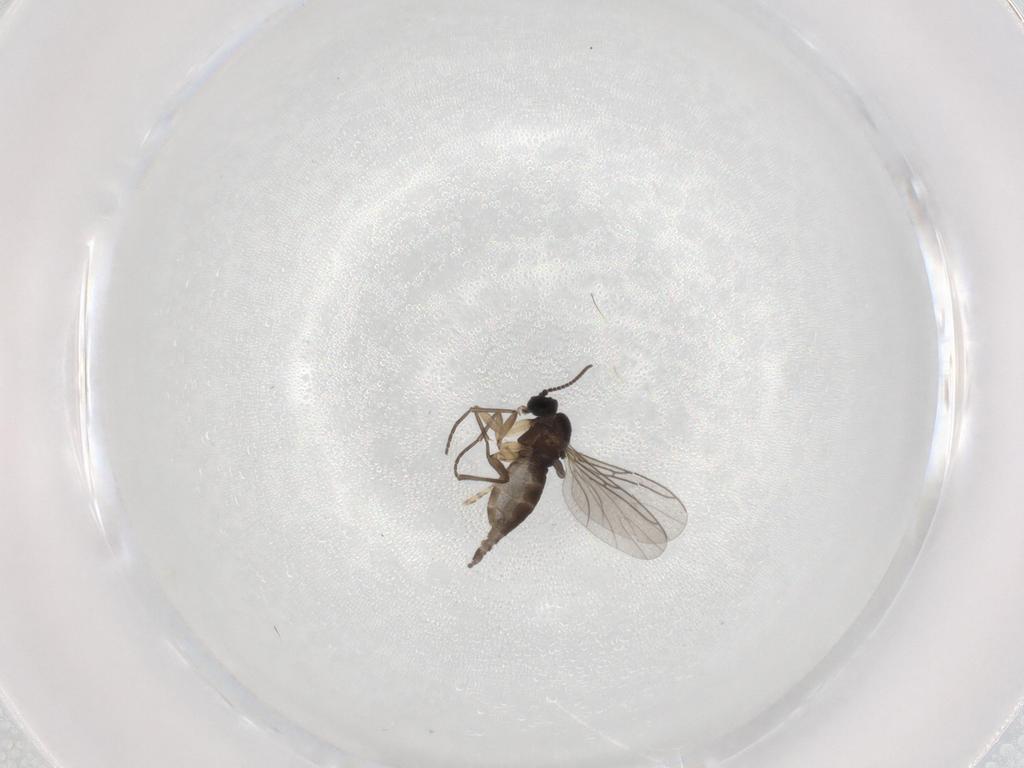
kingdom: Animalia
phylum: Arthropoda
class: Insecta
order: Diptera
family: Sciaridae
